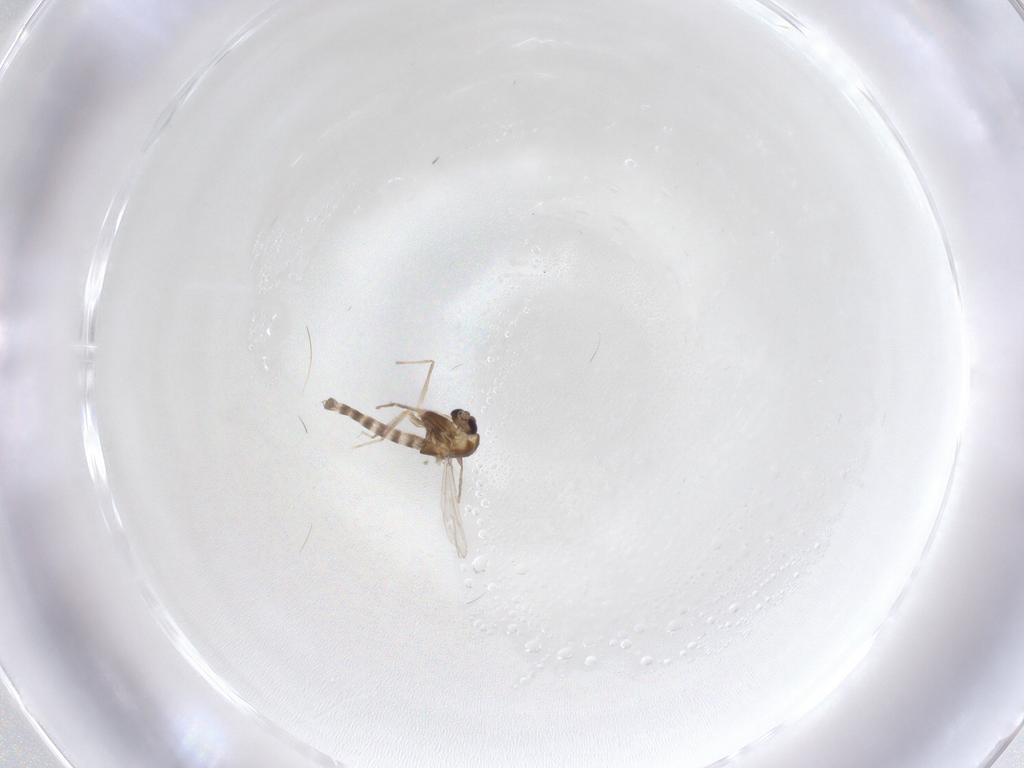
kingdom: Animalia
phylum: Arthropoda
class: Insecta
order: Diptera
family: Chironomidae
